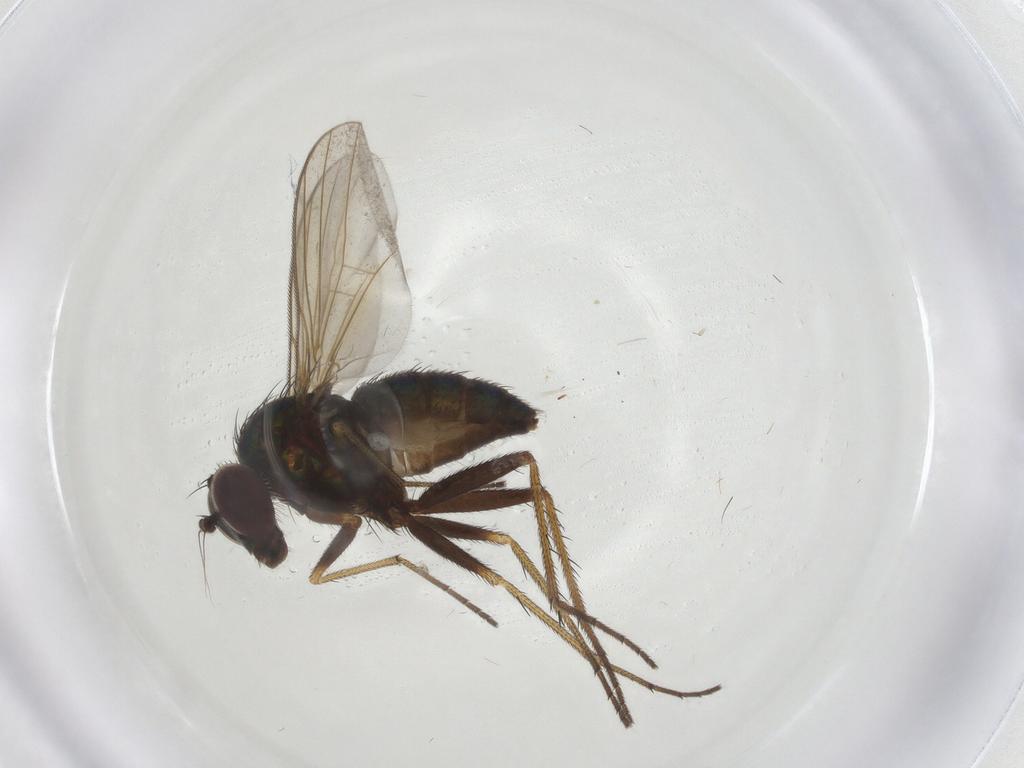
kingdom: Animalia
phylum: Arthropoda
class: Insecta
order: Diptera
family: Dolichopodidae
